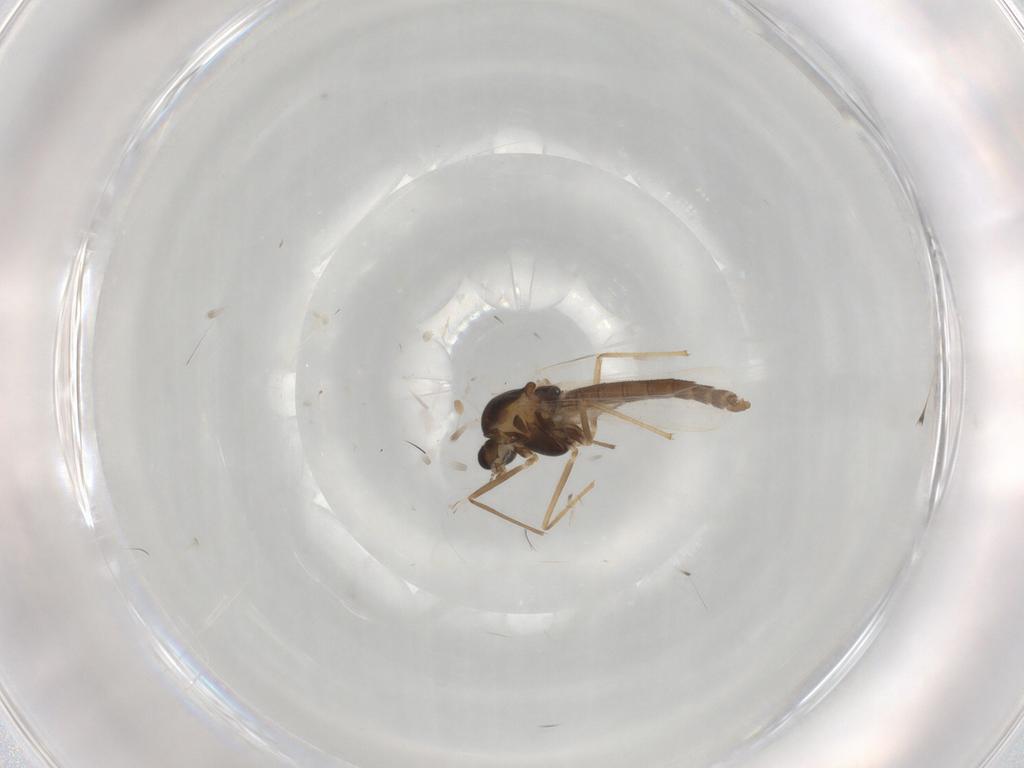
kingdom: Animalia
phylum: Arthropoda
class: Insecta
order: Diptera
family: Chironomidae
